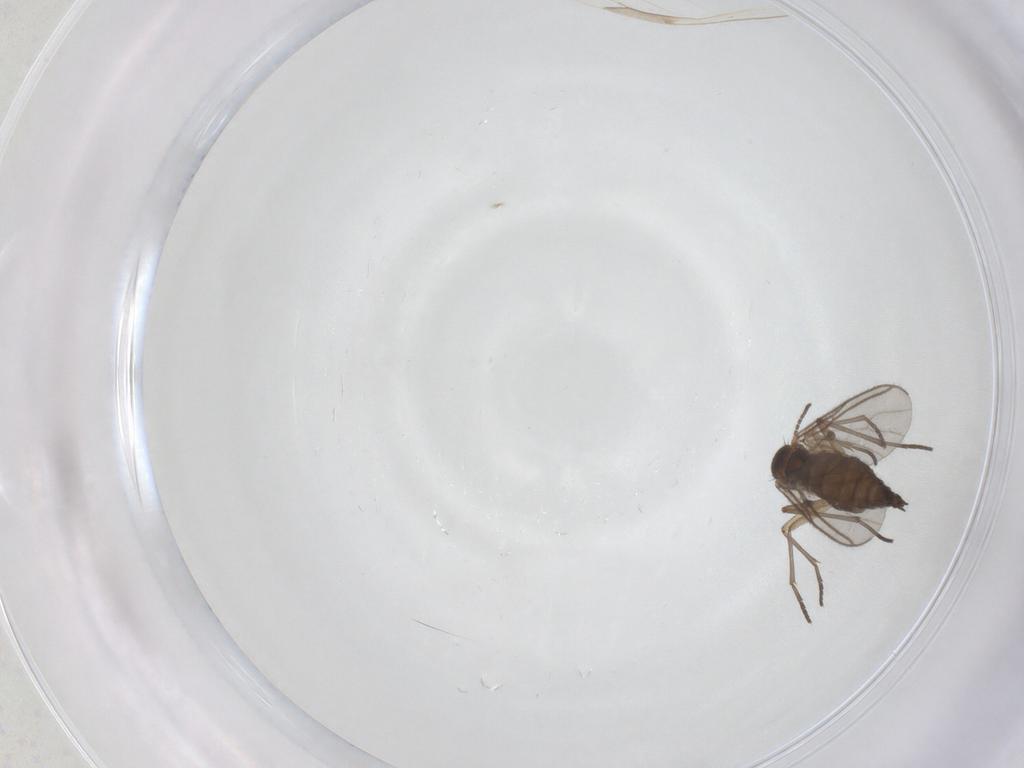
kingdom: Animalia
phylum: Arthropoda
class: Insecta
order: Diptera
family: Sciaridae
